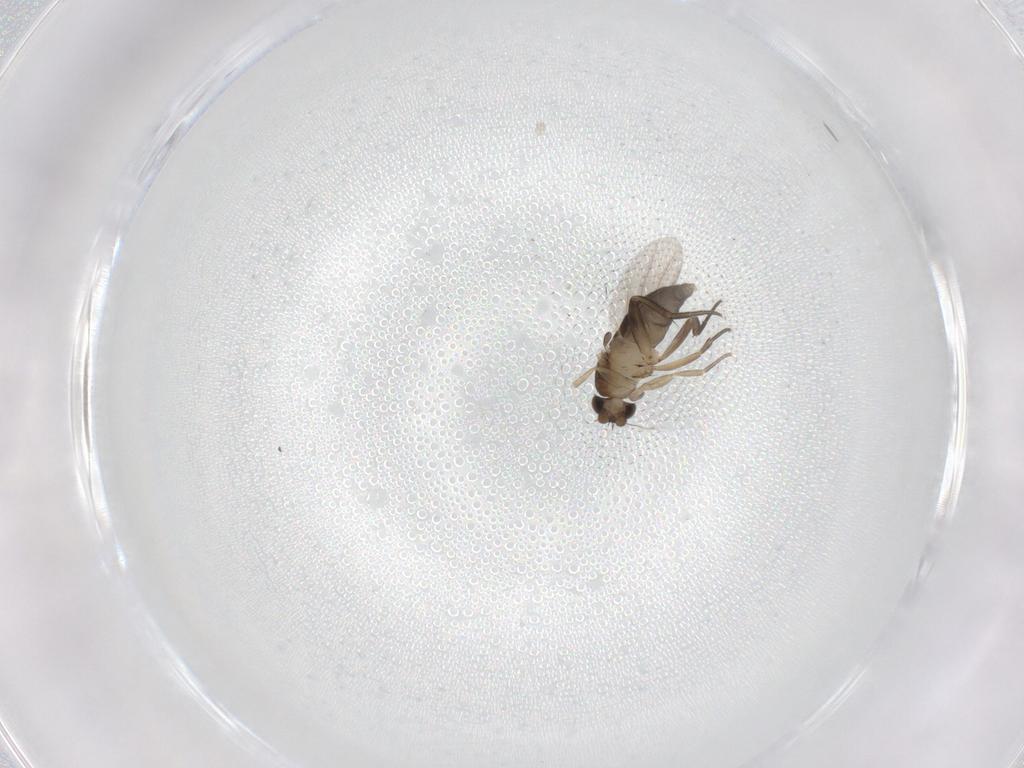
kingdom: Animalia
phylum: Arthropoda
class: Insecta
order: Diptera
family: Phoridae
